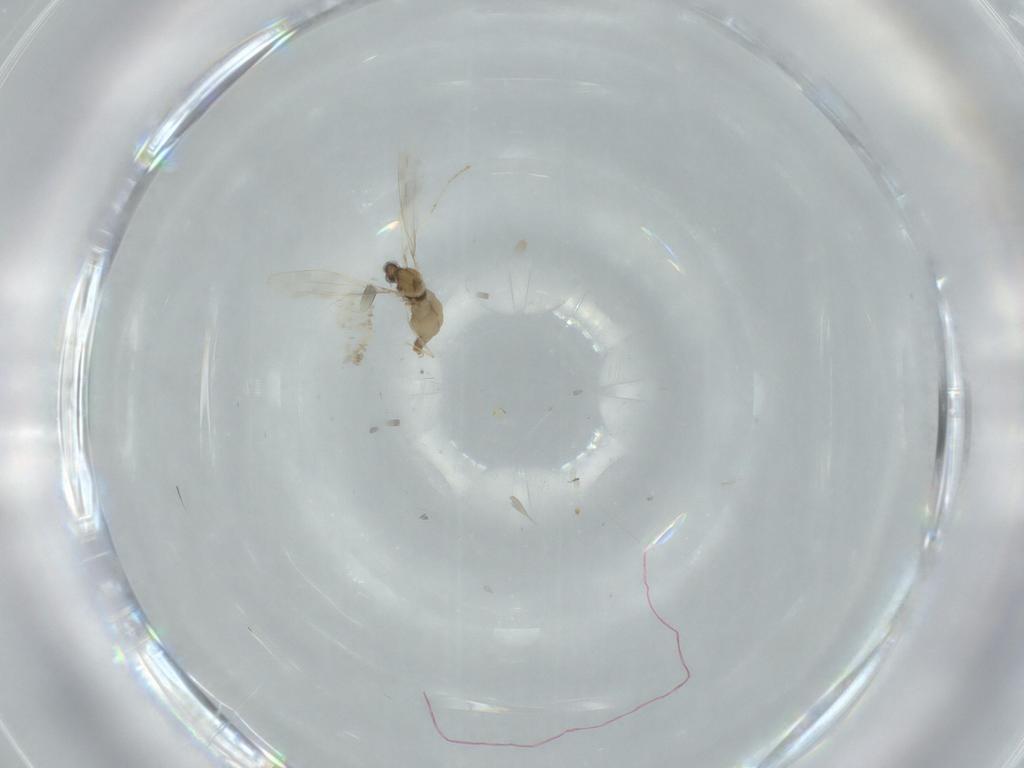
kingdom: Animalia
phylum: Arthropoda
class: Insecta
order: Diptera
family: Cecidomyiidae
